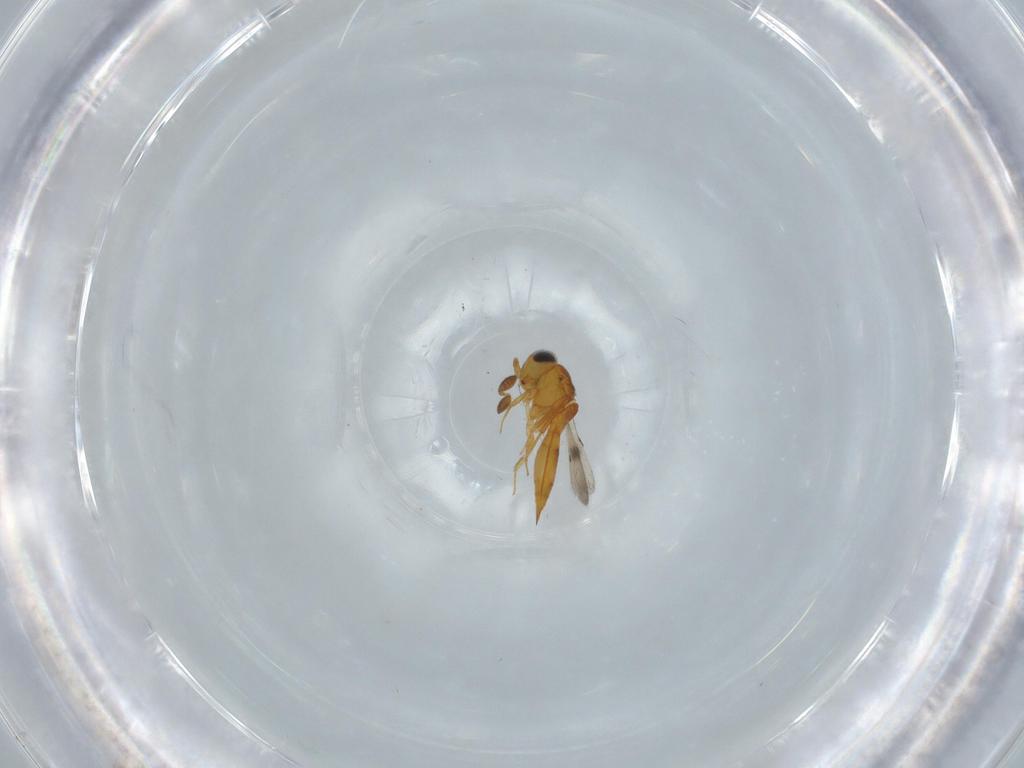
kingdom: Animalia
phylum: Arthropoda
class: Insecta
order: Hymenoptera
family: Scelionidae
